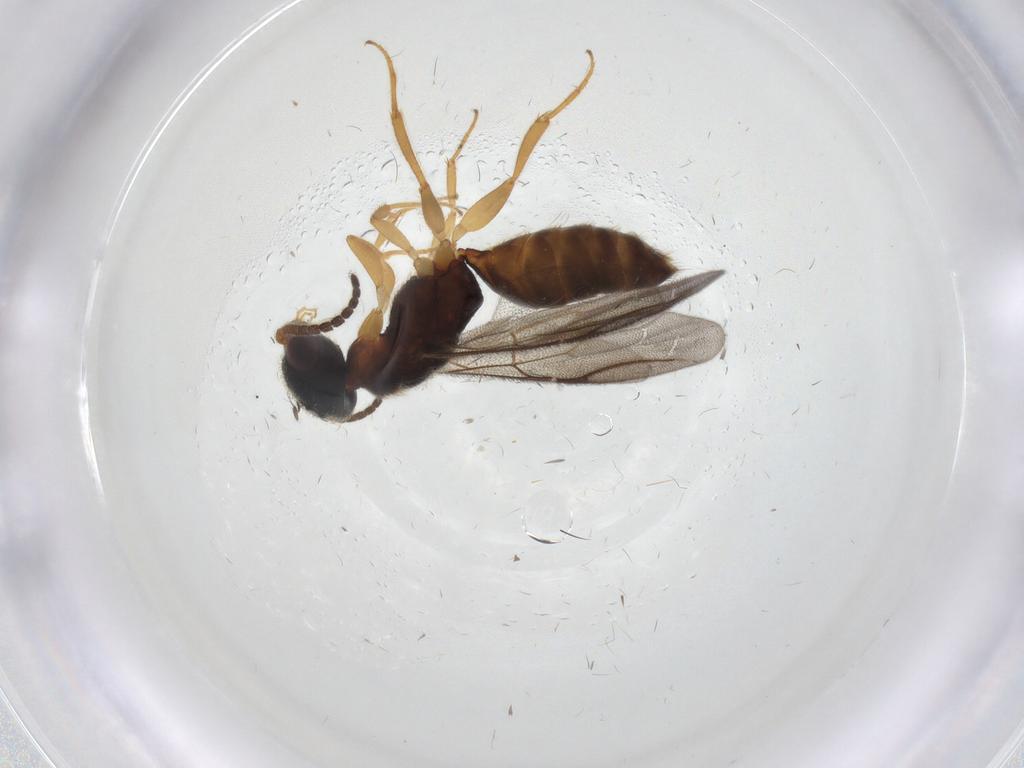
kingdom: Animalia
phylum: Arthropoda
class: Insecta
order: Hymenoptera
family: Bethylidae
